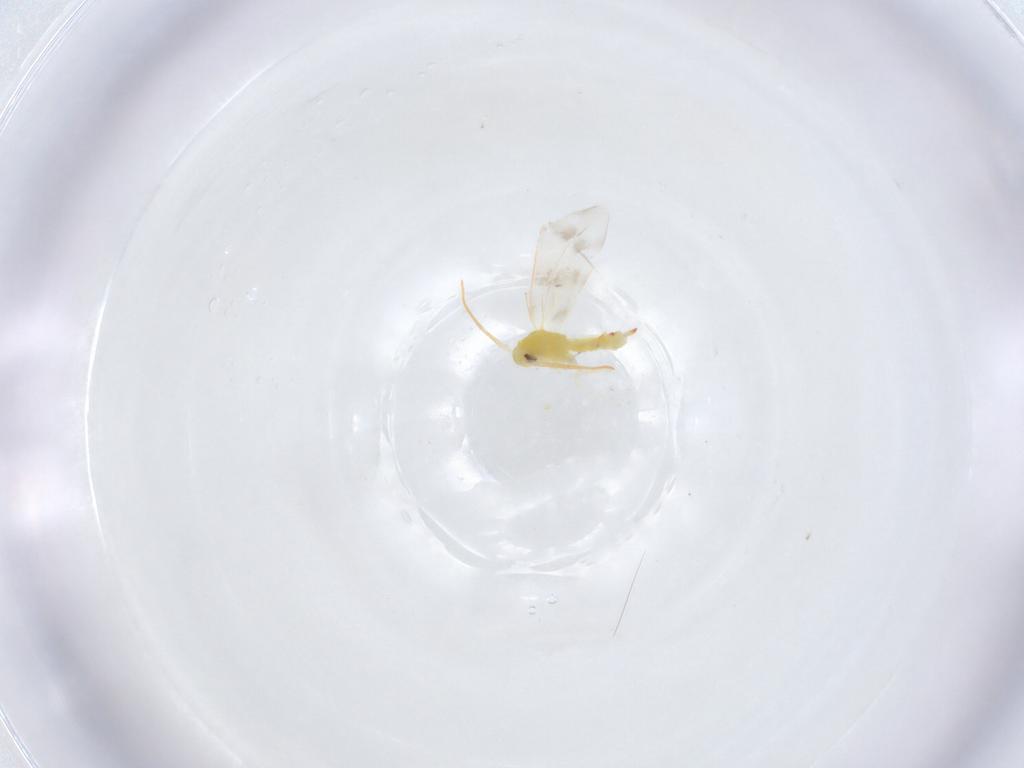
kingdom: Animalia
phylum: Arthropoda
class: Insecta
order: Hemiptera
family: Aleyrodidae
